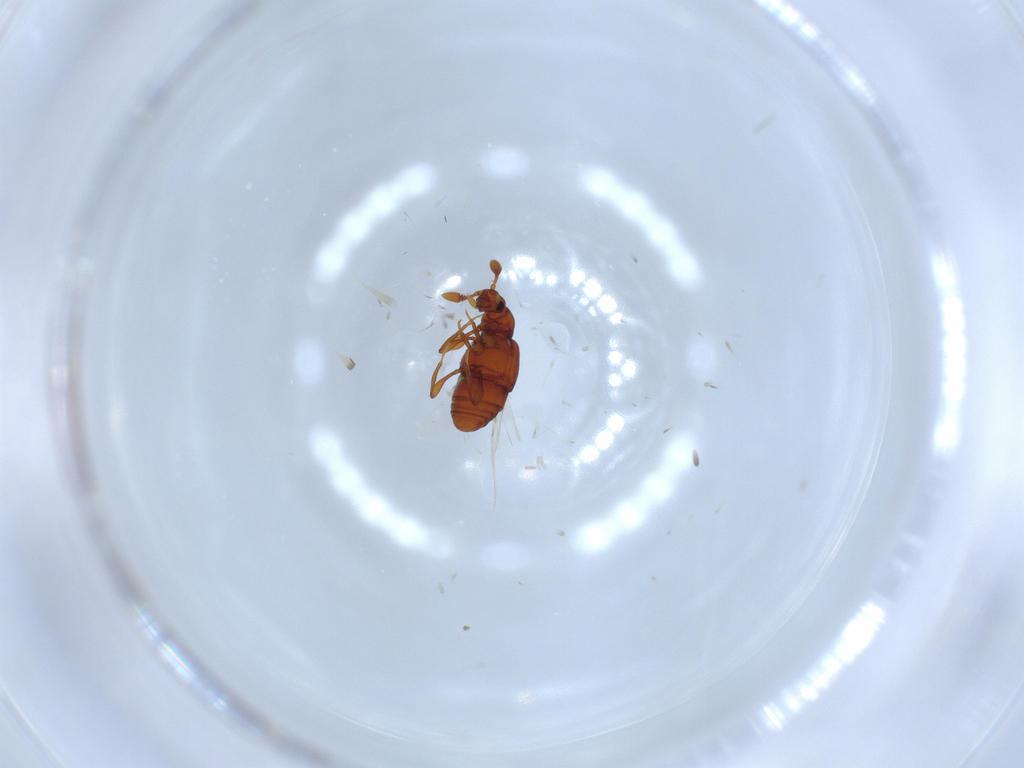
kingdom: Animalia
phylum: Arthropoda
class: Insecta
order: Coleoptera
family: Staphylinidae
